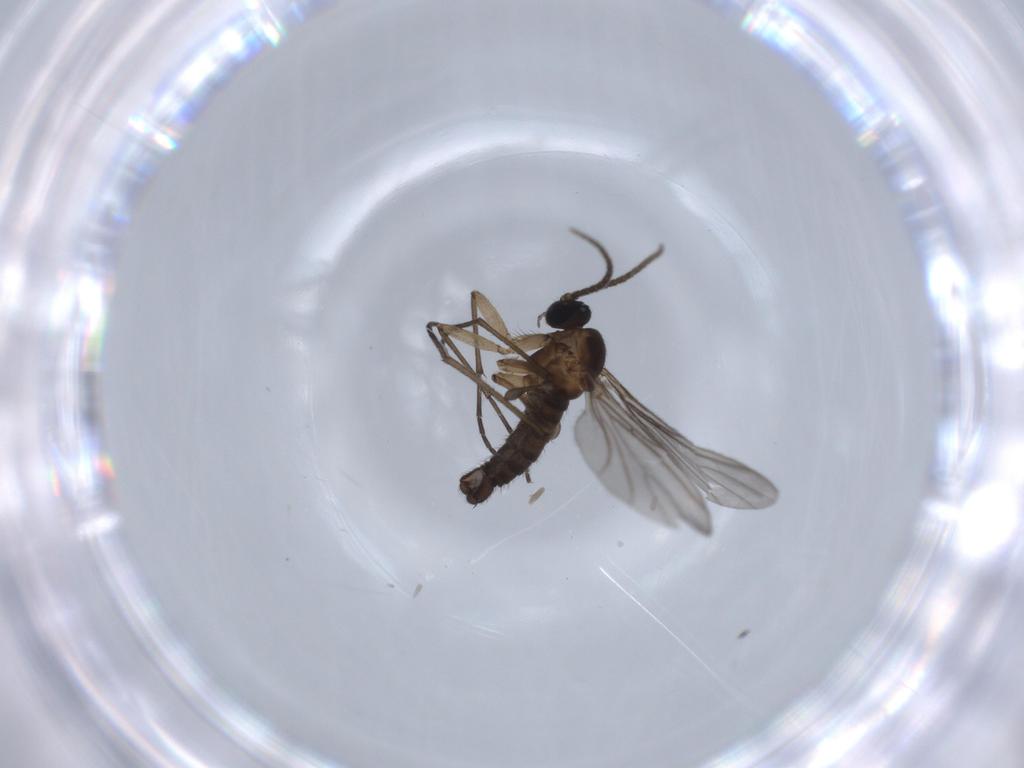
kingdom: Animalia
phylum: Arthropoda
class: Insecta
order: Diptera
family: Sciaridae
